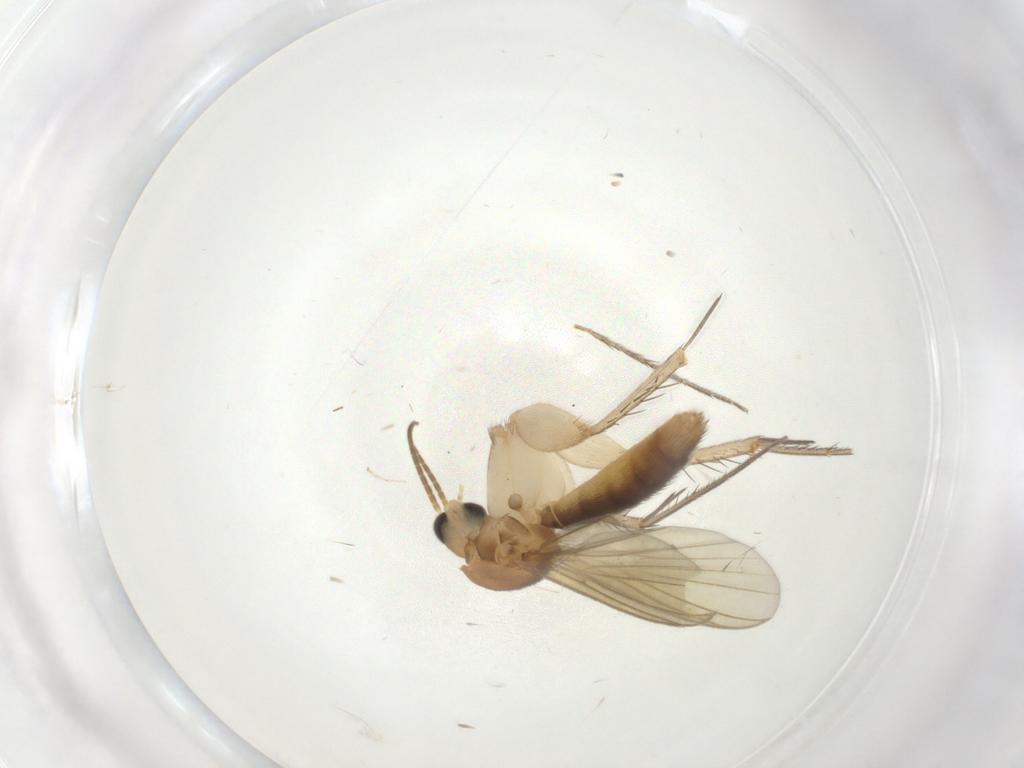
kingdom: Animalia
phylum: Arthropoda
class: Insecta
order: Diptera
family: Mycetophilidae
